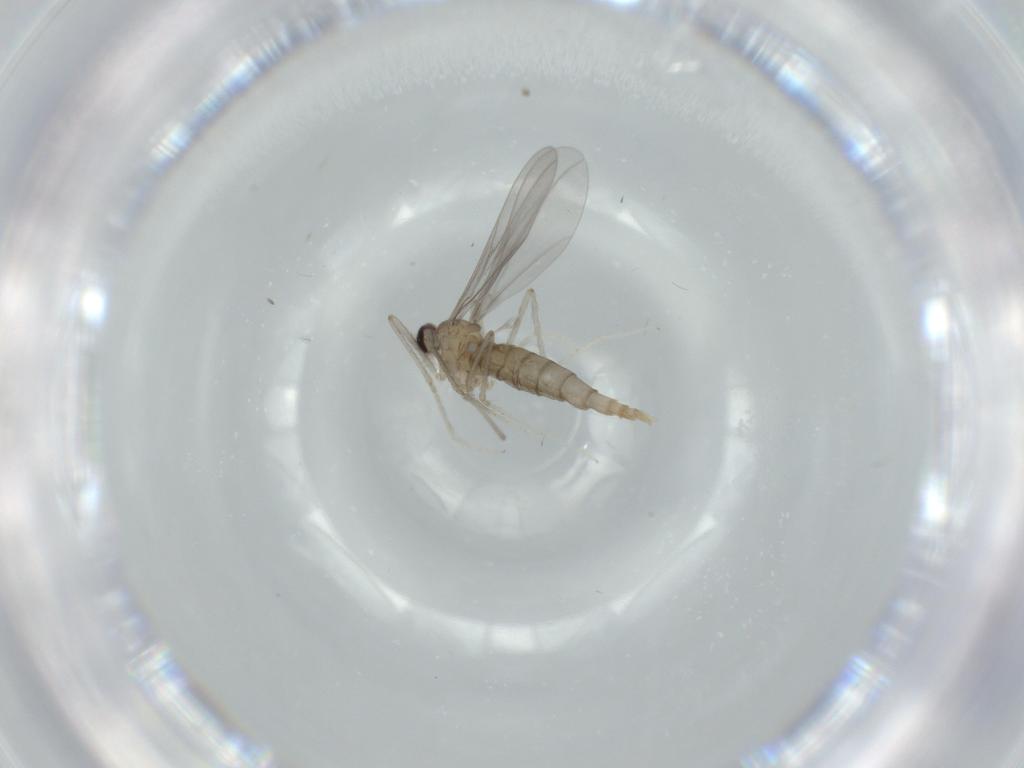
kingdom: Animalia
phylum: Arthropoda
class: Insecta
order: Diptera
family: Cecidomyiidae
